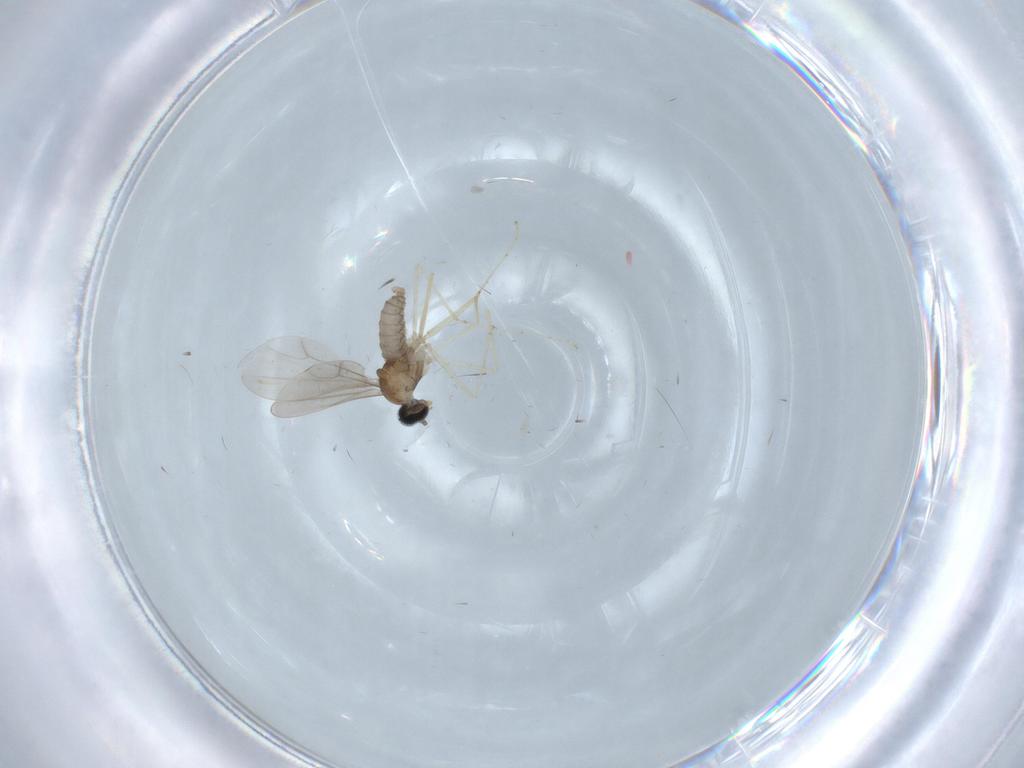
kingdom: Animalia
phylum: Arthropoda
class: Insecta
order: Diptera
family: Cecidomyiidae
